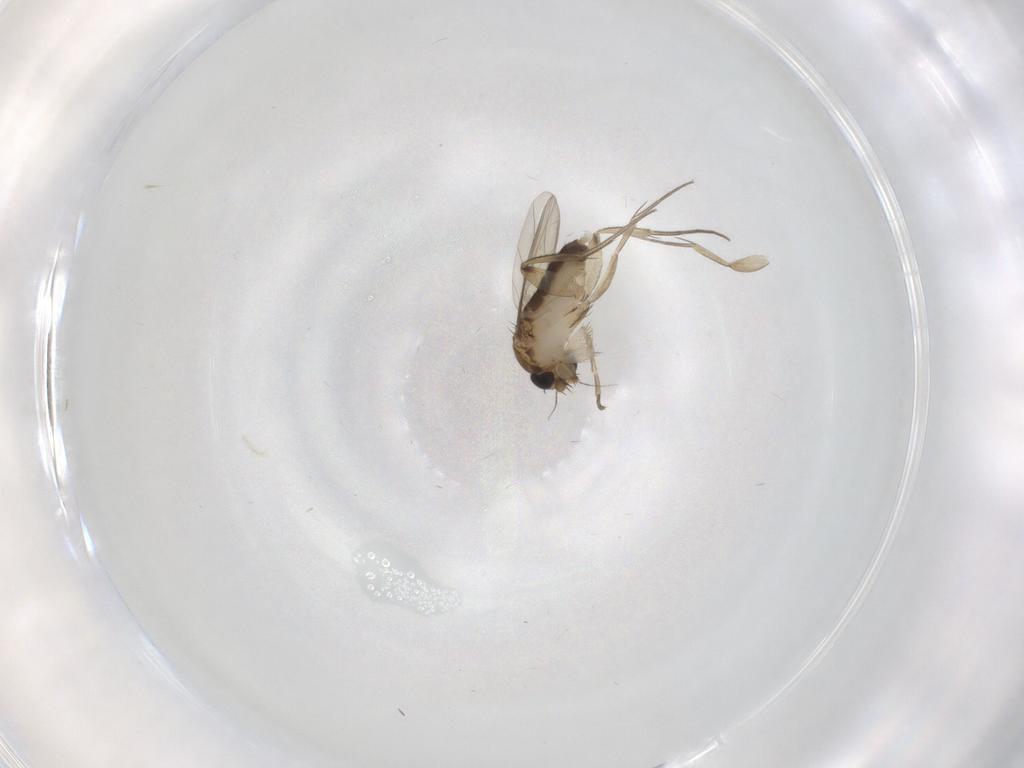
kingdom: Animalia
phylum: Arthropoda
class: Insecta
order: Diptera
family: Phoridae
